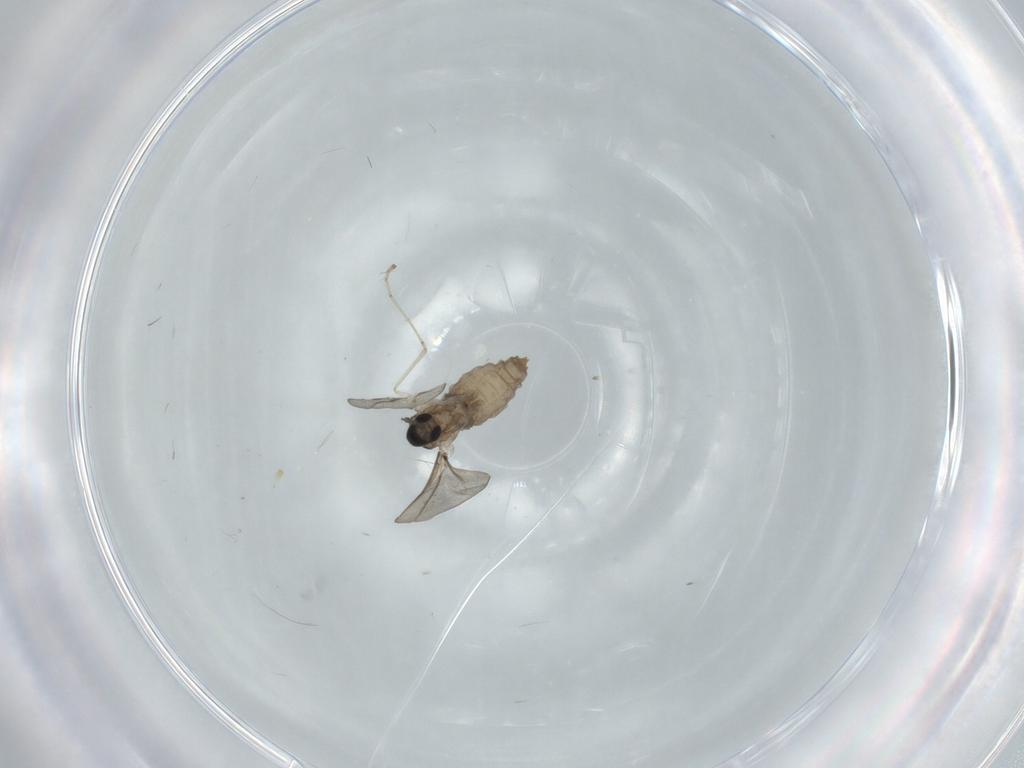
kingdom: Animalia
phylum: Arthropoda
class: Insecta
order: Diptera
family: Cecidomyiidae
